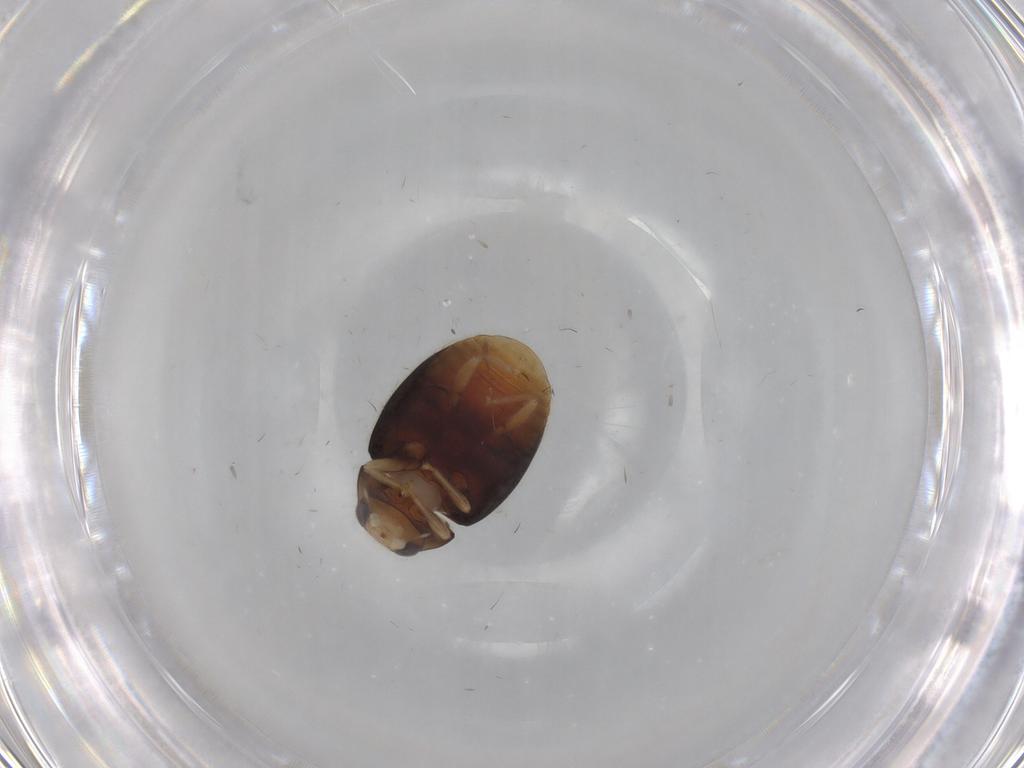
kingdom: Animalia
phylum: Arthropoda
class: Insecta
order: Coleoptera
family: Coccinellidae
